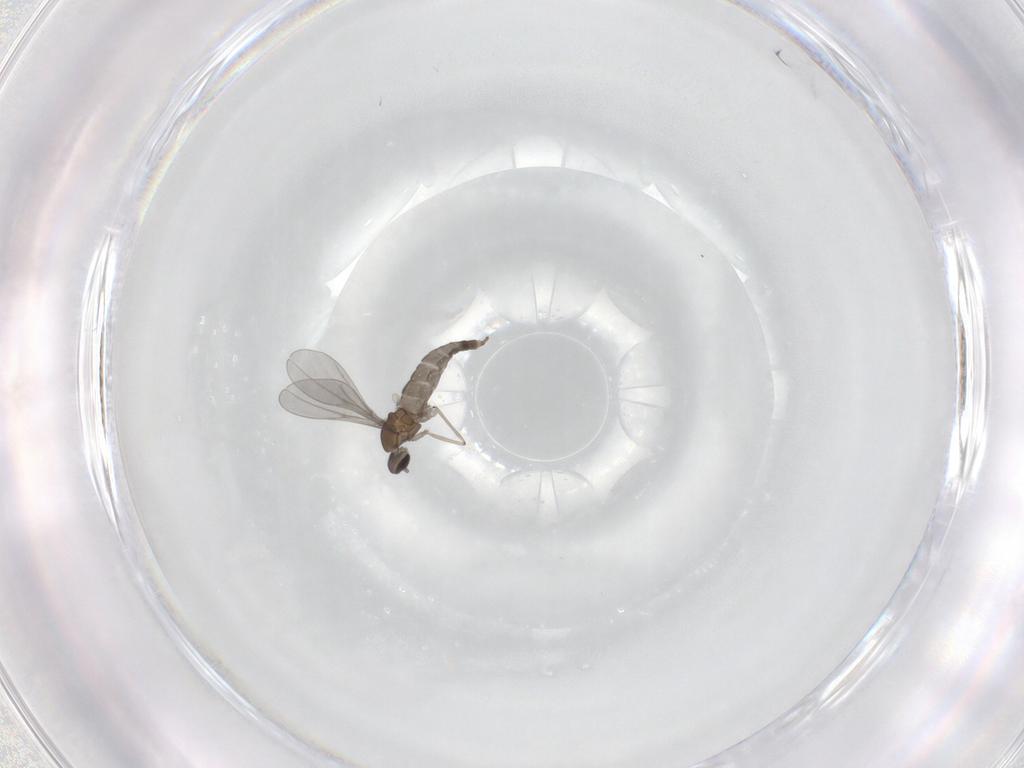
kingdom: Animalia
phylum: Arthropoda
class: Insecta
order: Diptera
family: Cecidomyiidae
